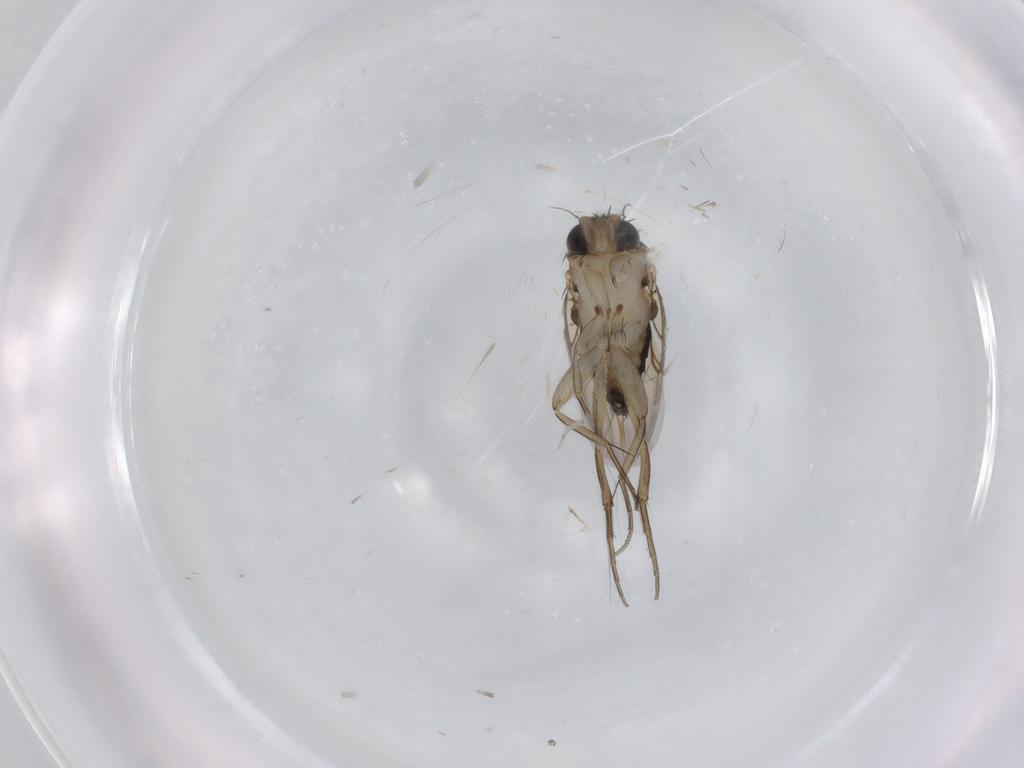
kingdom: Animalia
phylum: Arthropoda
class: Insecta
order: Diptera
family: Phoridae
